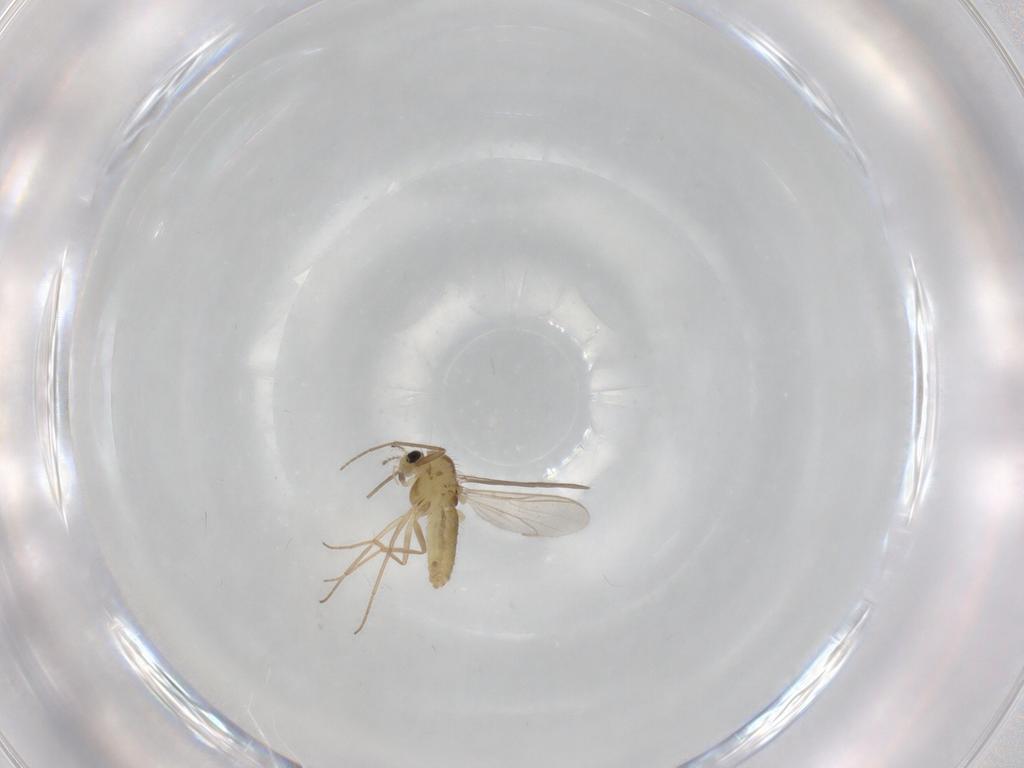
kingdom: Animalia
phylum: Arthropoda
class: Insecta
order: Diptera
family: Chironomidae
